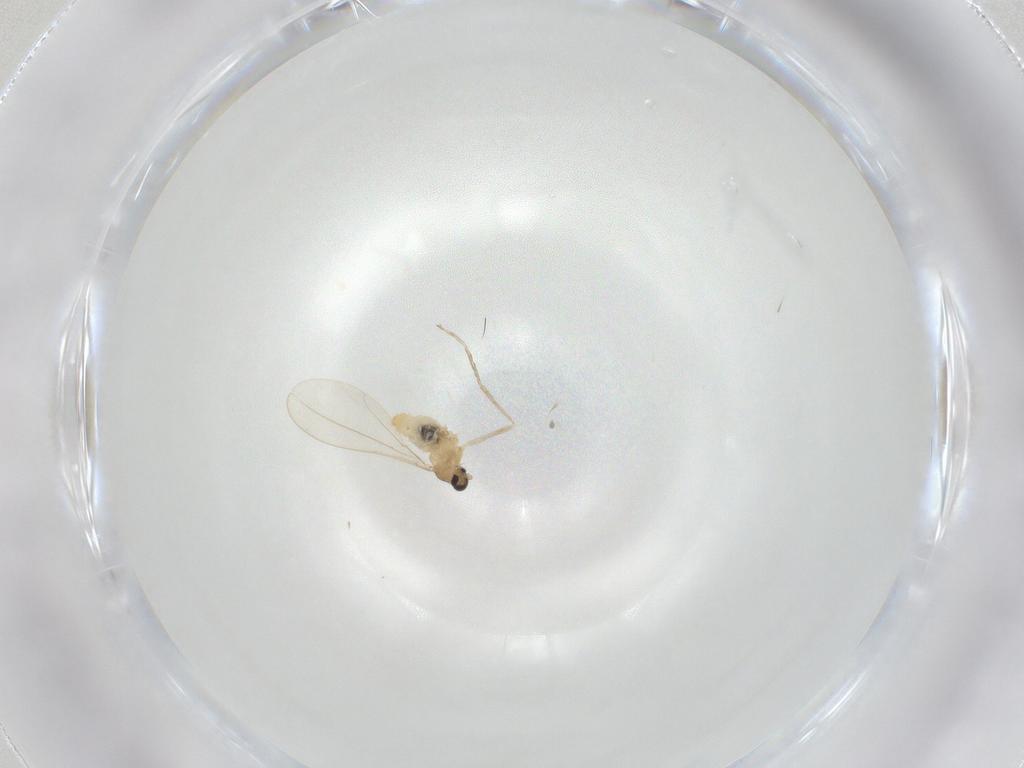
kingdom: Animalia
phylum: Arthropoda
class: Insecta
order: Diptera
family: Cecidomyiidae
